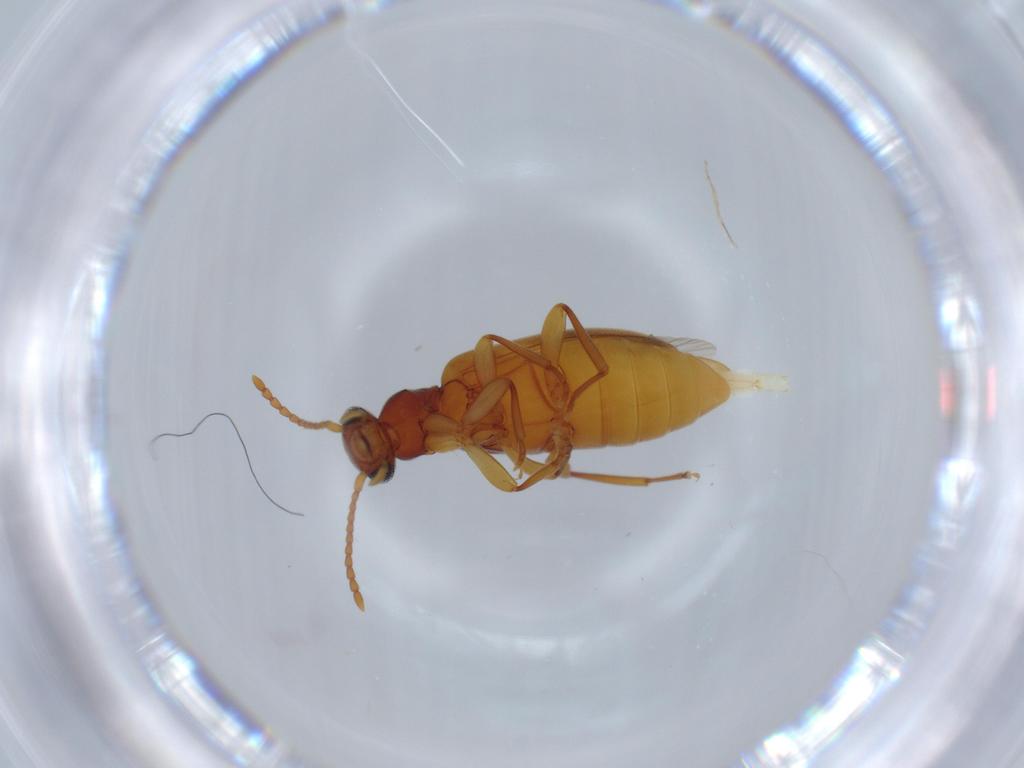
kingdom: Animalia
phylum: Arthropoda
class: Insecta
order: Coleoptera
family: Anthicidae
